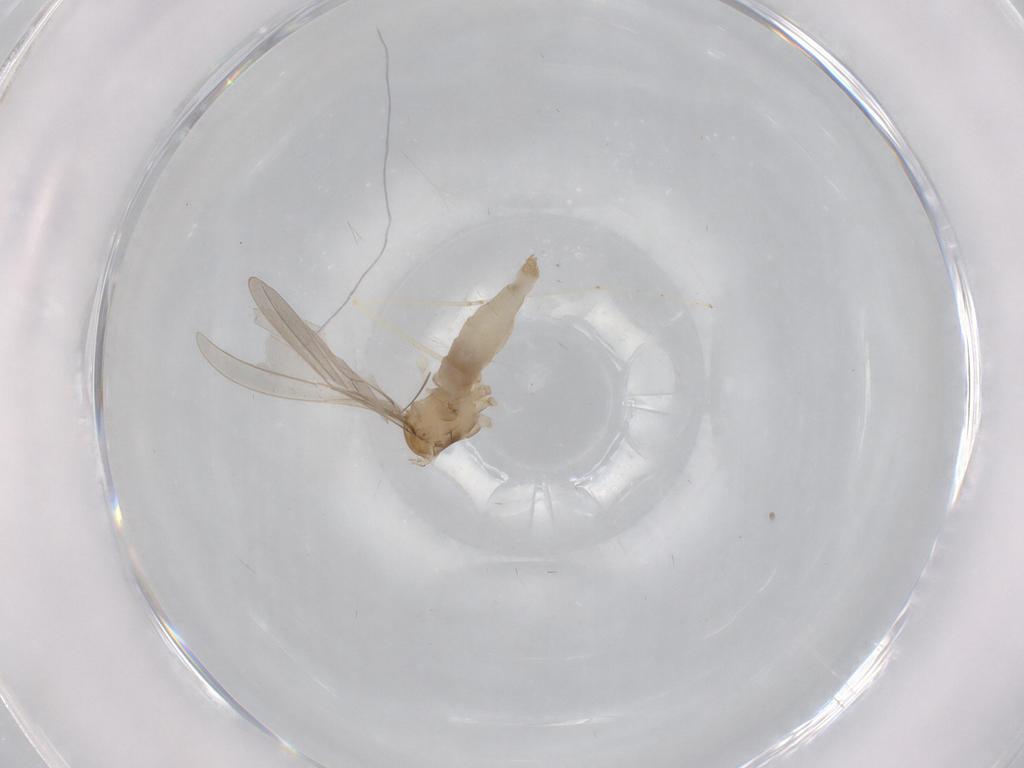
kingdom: Animalia
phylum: Arthropoda
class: Insecta
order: Diptera
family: Cecidomyiidae
